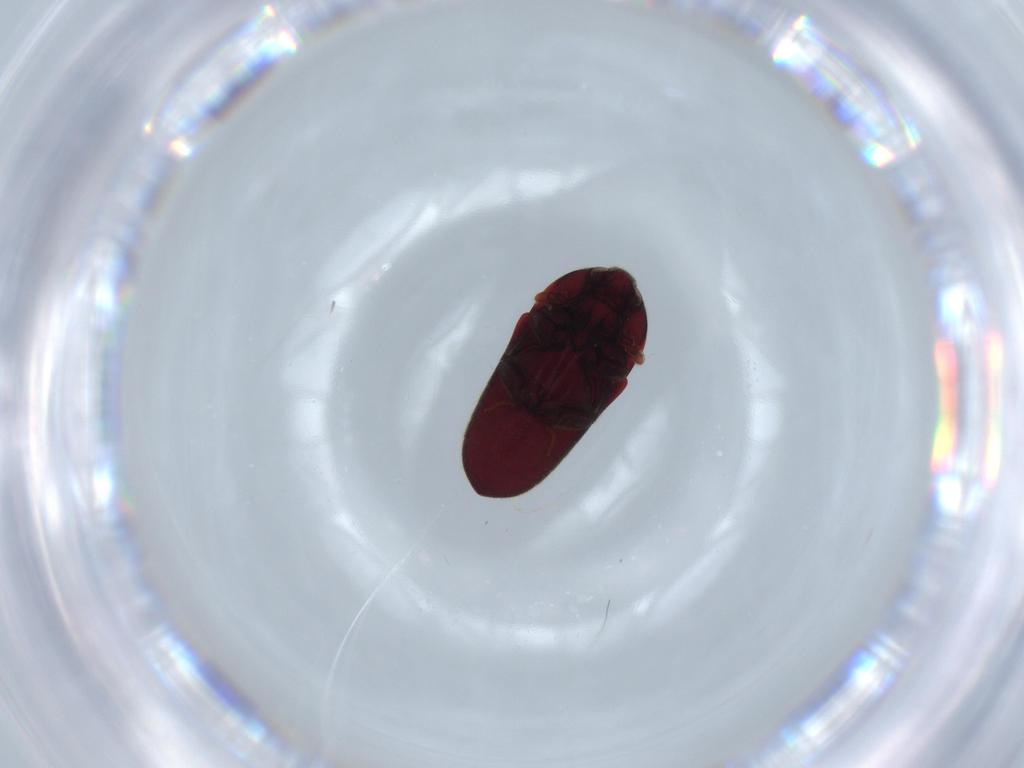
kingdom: Animalia
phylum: Arthropoda
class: Insecta
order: Coleoptera
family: Throscidae
